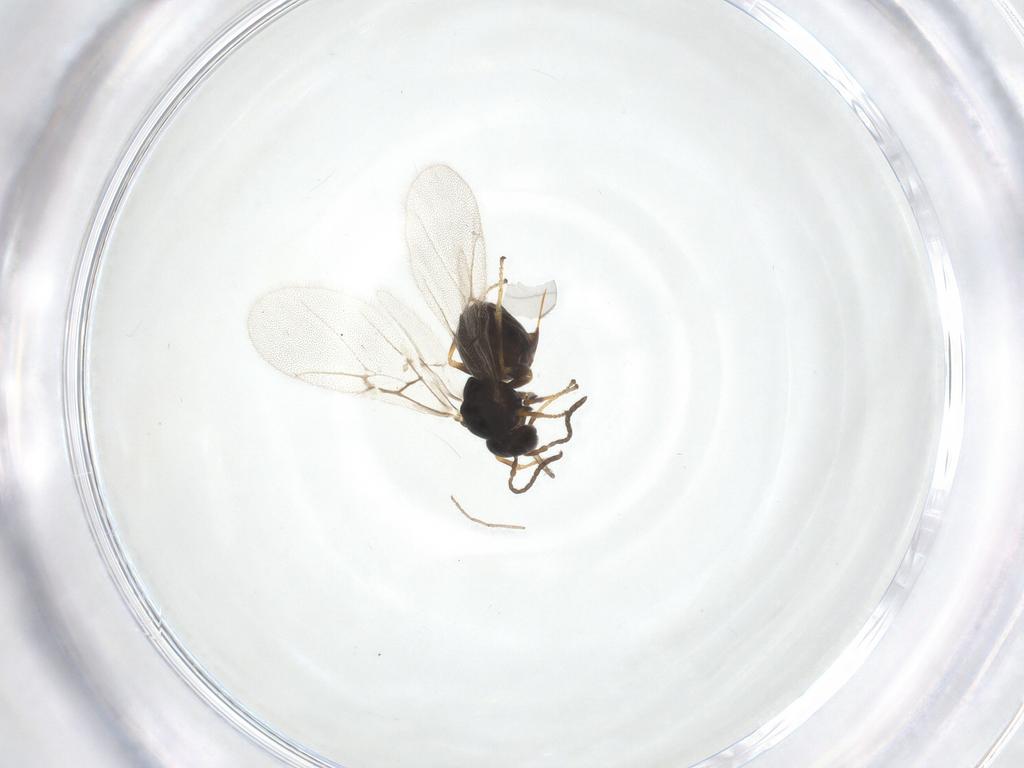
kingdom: Animalia
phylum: Arthropoda
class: Insecta
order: Hymenoptera
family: Cynipidae
